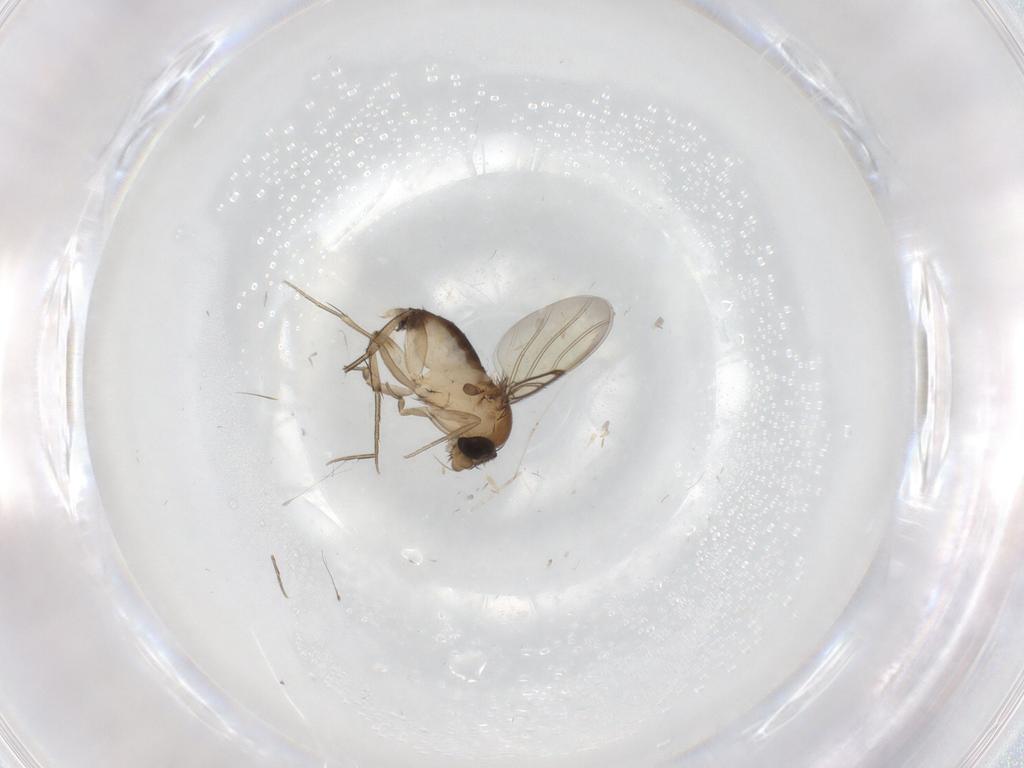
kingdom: Animalia
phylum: Arthropoda
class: Insecta
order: Diptera
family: Phoridae
